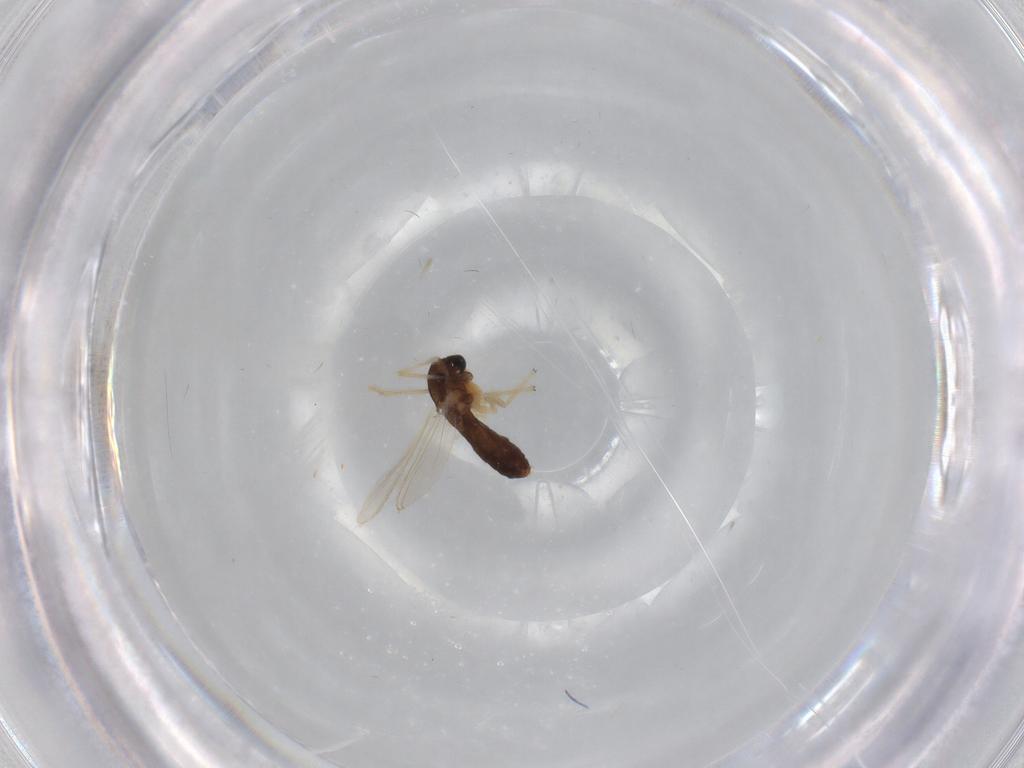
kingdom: Animalia
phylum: Arthropoda
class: Insecta
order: Diptera
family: Chironomidae
